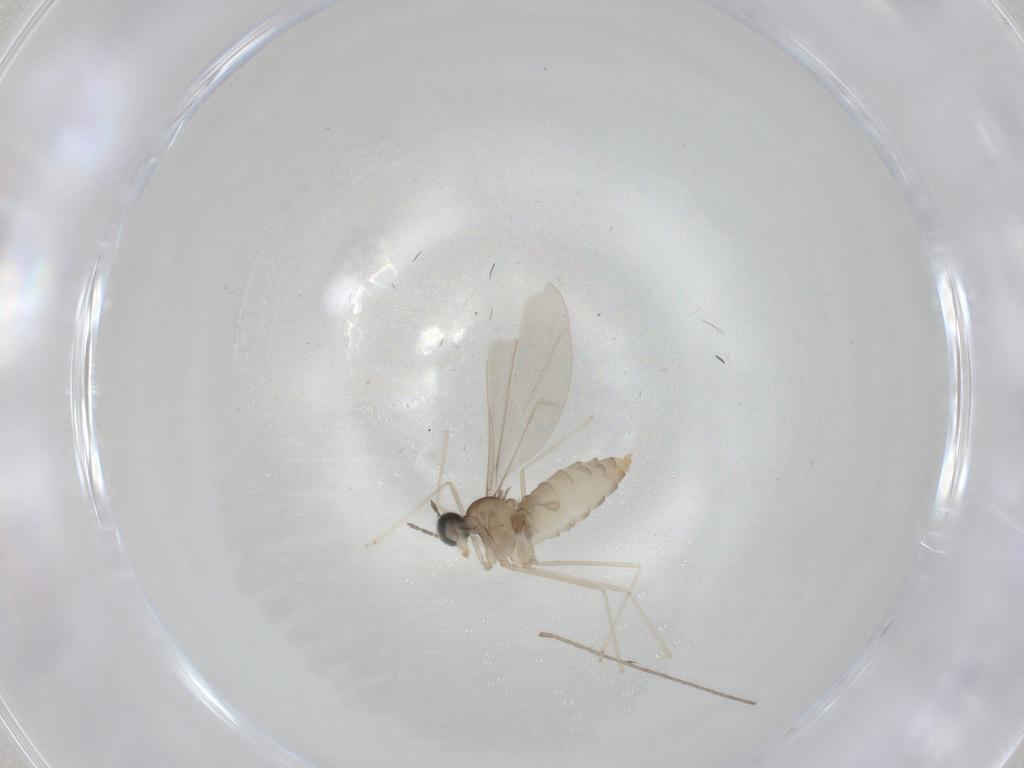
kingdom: Animalia
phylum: Arthropoda
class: Insecta
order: Diptera
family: Cecidomyiidae
